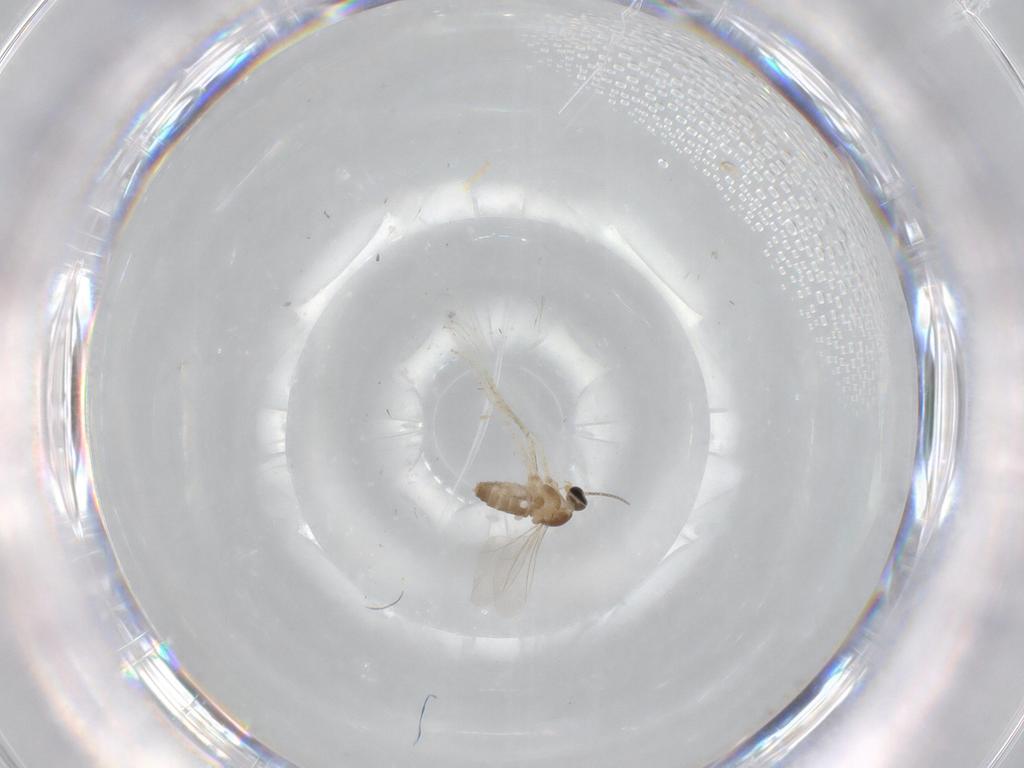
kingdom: Animalia
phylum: Arthropoda
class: Insecta
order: Diptera
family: Cecidomyiidae
